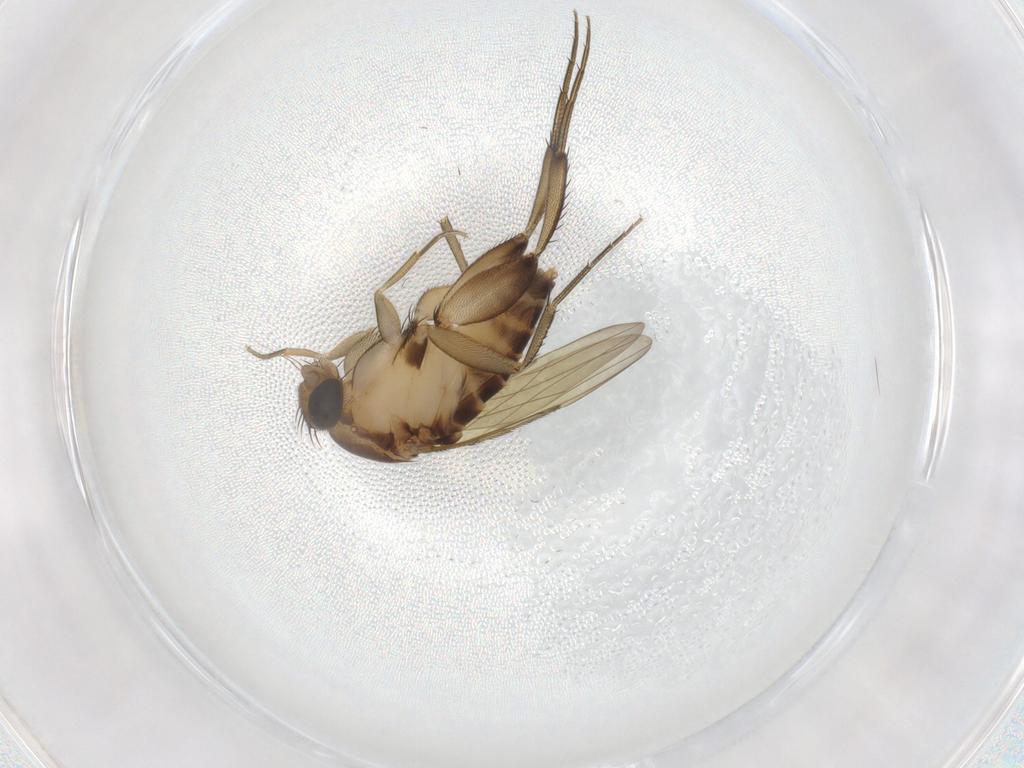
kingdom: Animalia
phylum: Arthropoda
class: Insecta
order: Diptera
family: Phoridae
